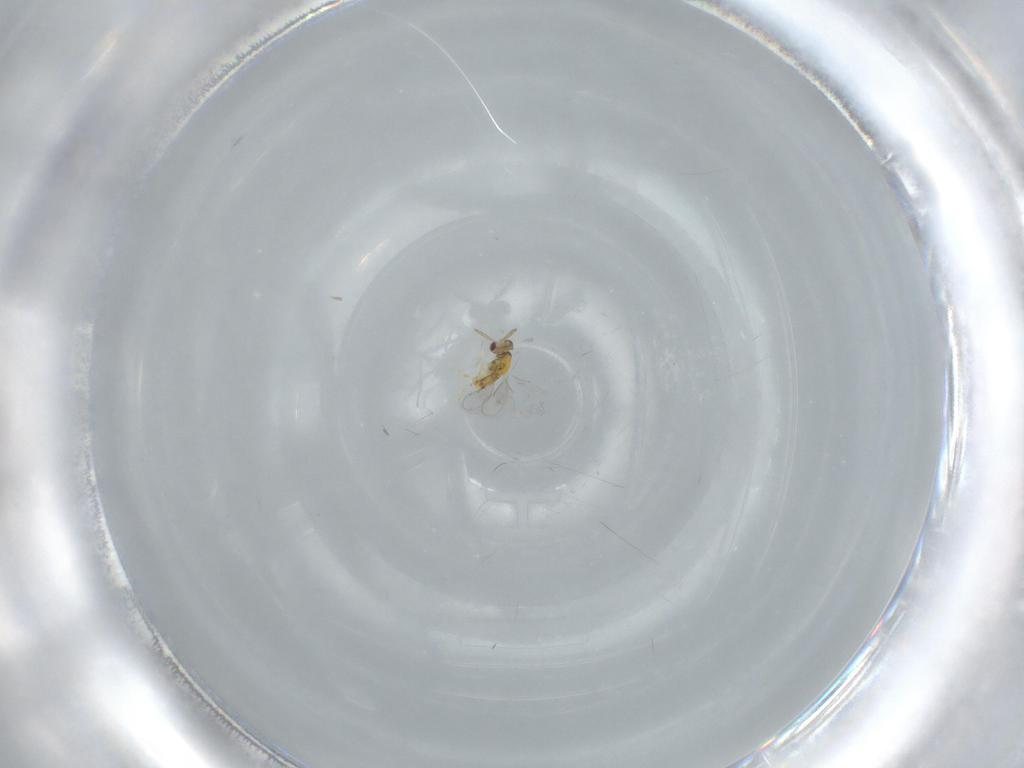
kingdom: Animalia
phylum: Arthropoda
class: Insecta
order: Hymenoptera
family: Aphelinidae
